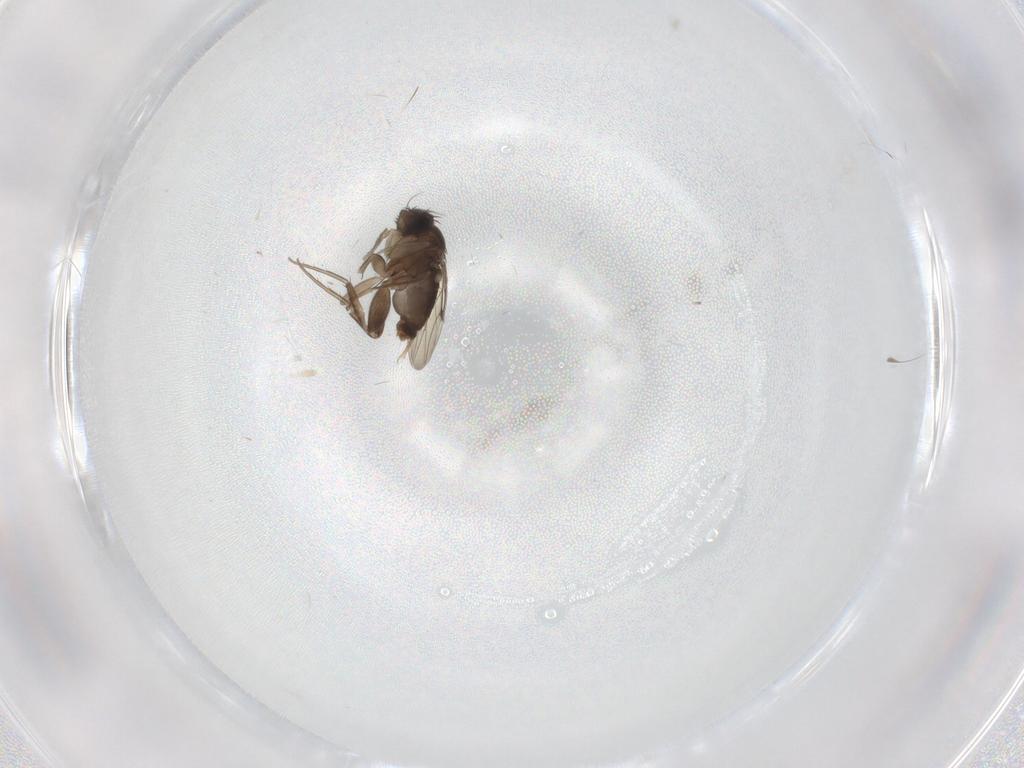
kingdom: Animalia
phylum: Arthropoda
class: Insecta
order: Diptera
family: Phoridae
